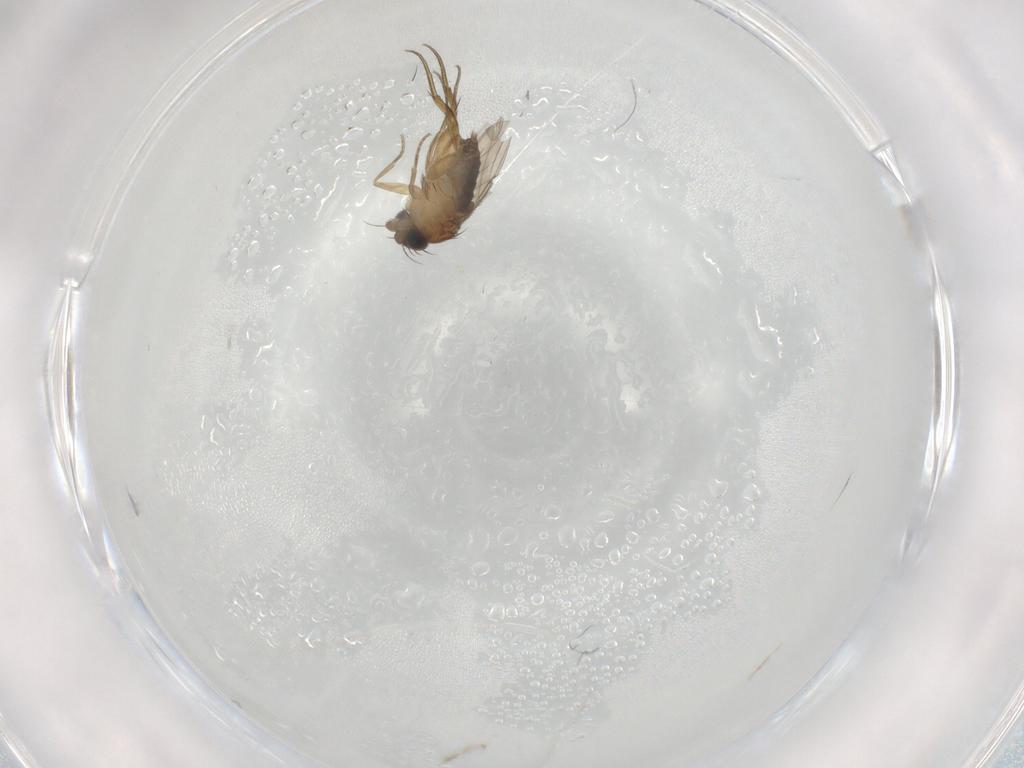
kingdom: Animalia
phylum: Arthropoda
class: Insecta
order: Diptera
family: Phoridae
